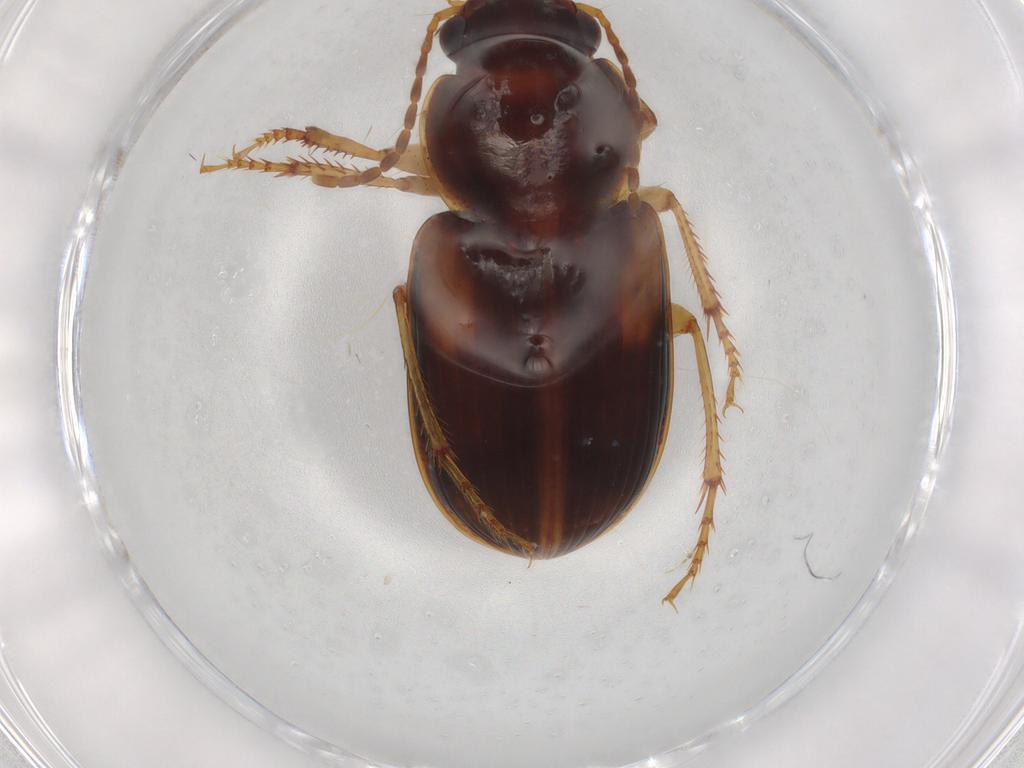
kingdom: Animalia
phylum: Arthropoda
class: Insecta
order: Coleoptera
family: Carabidae
